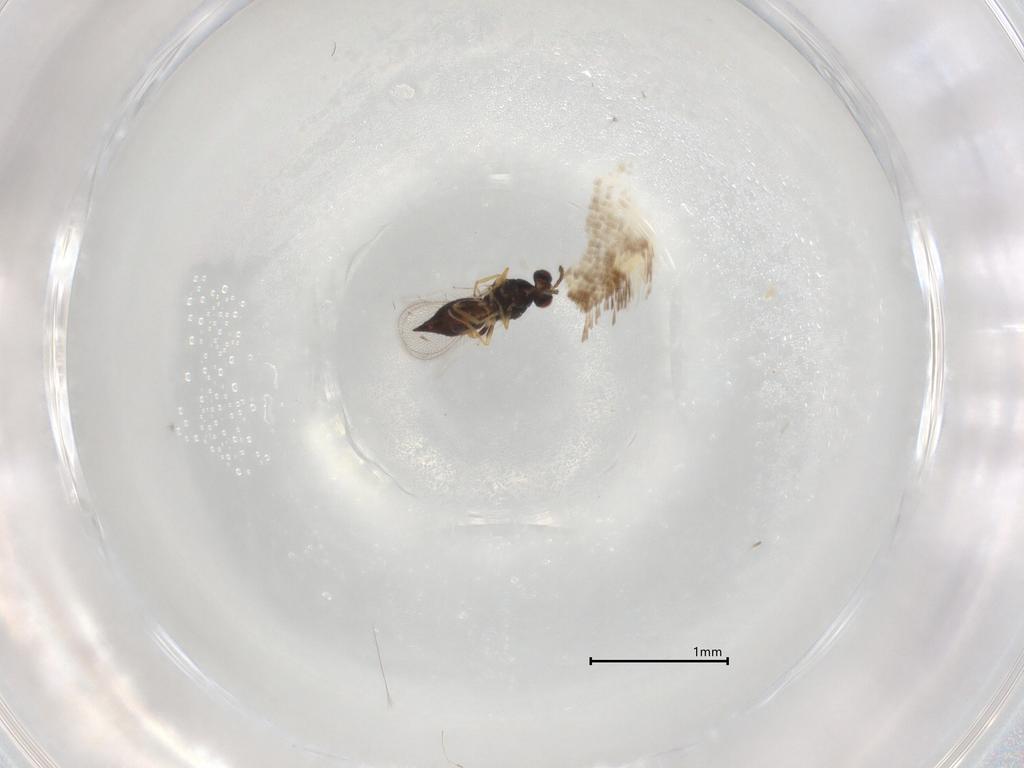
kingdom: Animalia
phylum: Arthropoda
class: Insecta
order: Hymenoptera
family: Eulophidae
